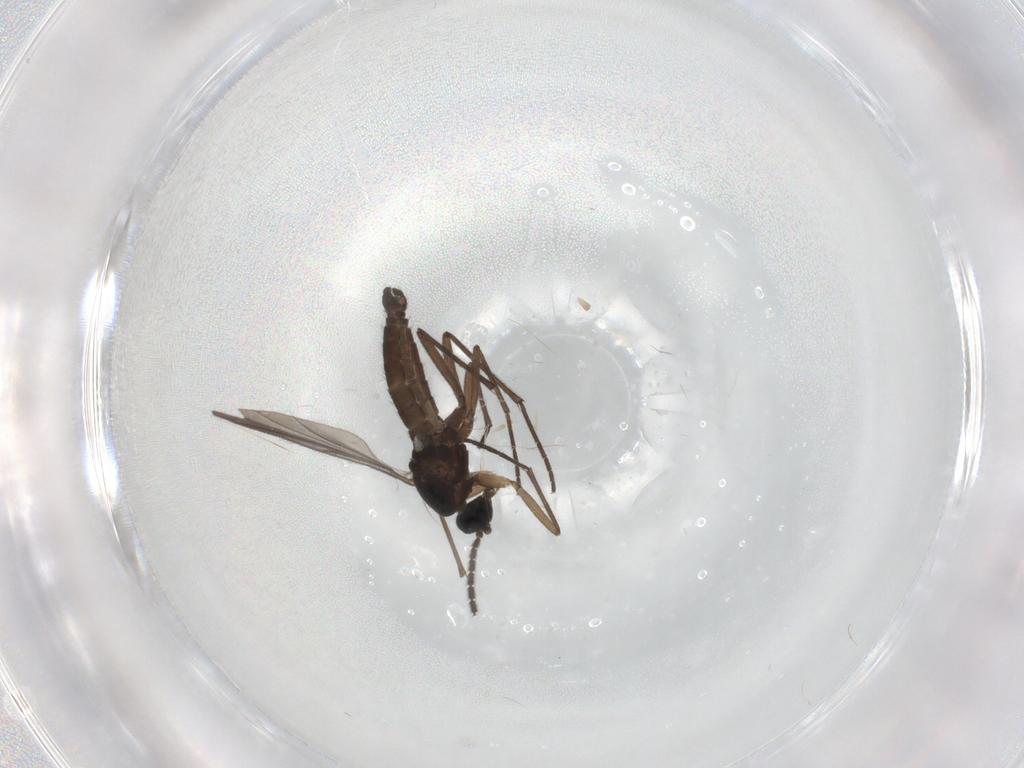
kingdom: Animalia
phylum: Arthropoda
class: Insecta
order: Diptera
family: Sciaridae
